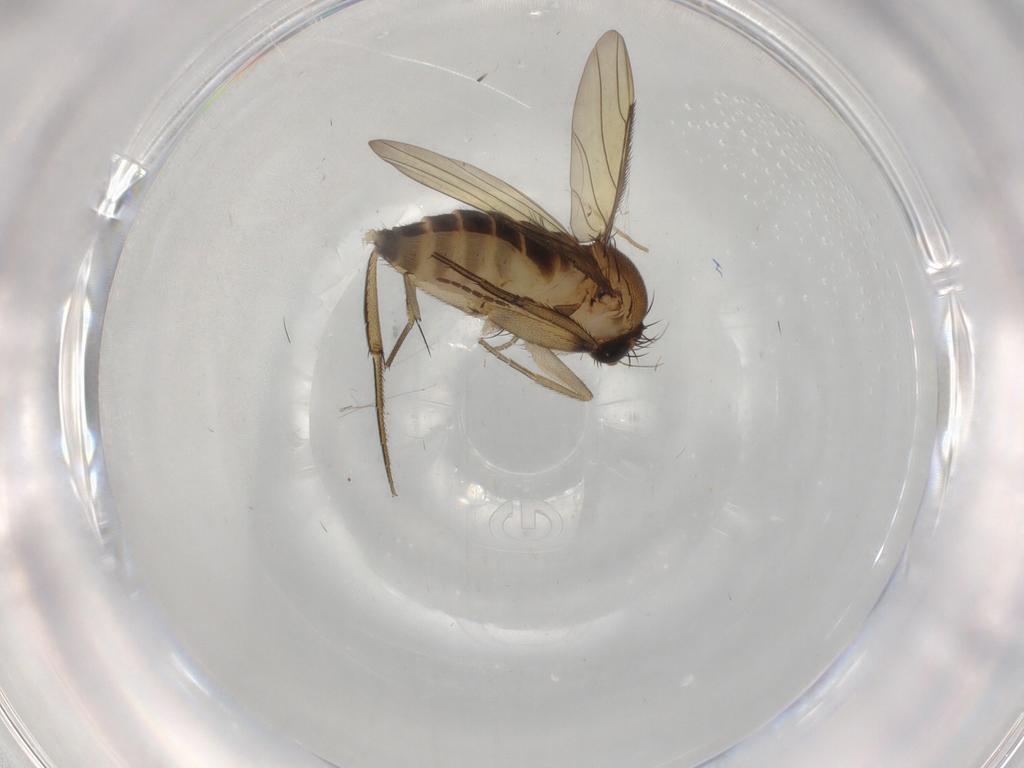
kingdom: Animalia
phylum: Arthropoda
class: Insecta
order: Diptera
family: Phoridae
